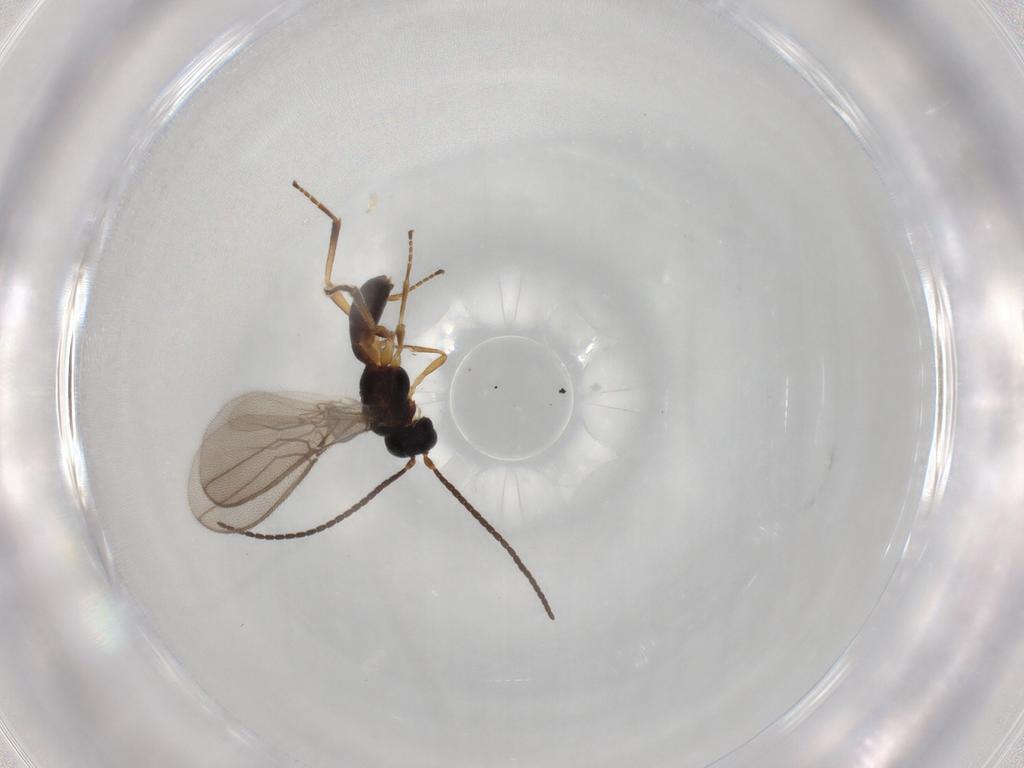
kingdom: Animalia
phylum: Arthropoda
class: Insecta
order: Hymenoptera
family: Braconidae
